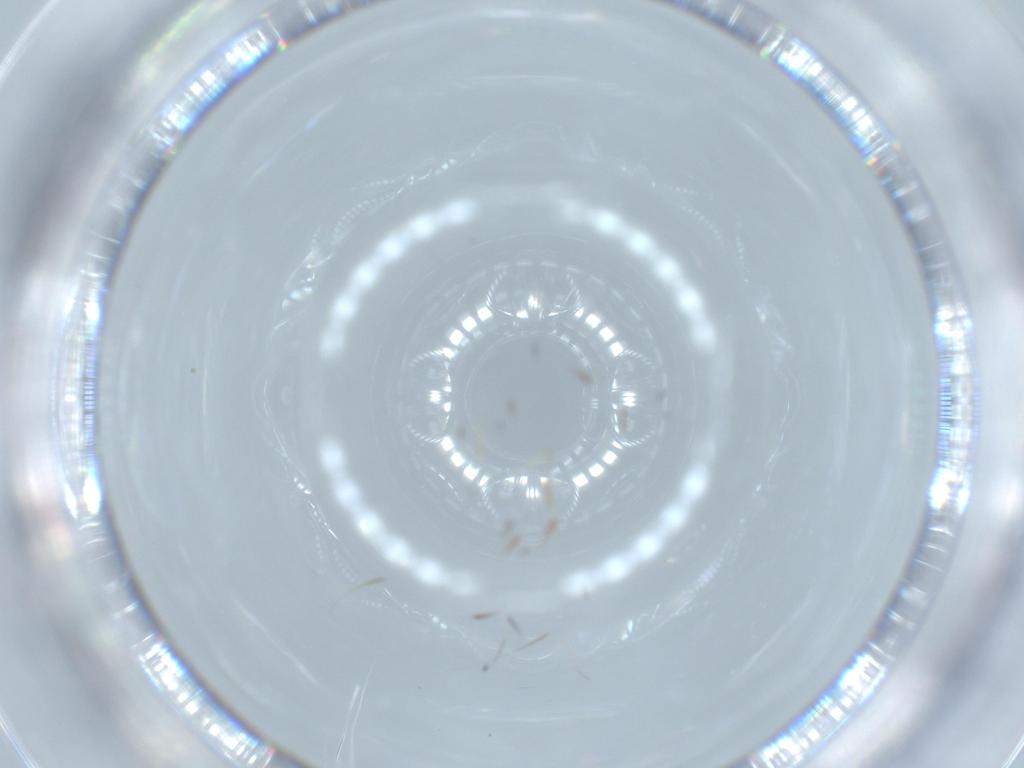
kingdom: Animalia
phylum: Arthropoda
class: Insecta
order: Diptera
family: Chironomidae
